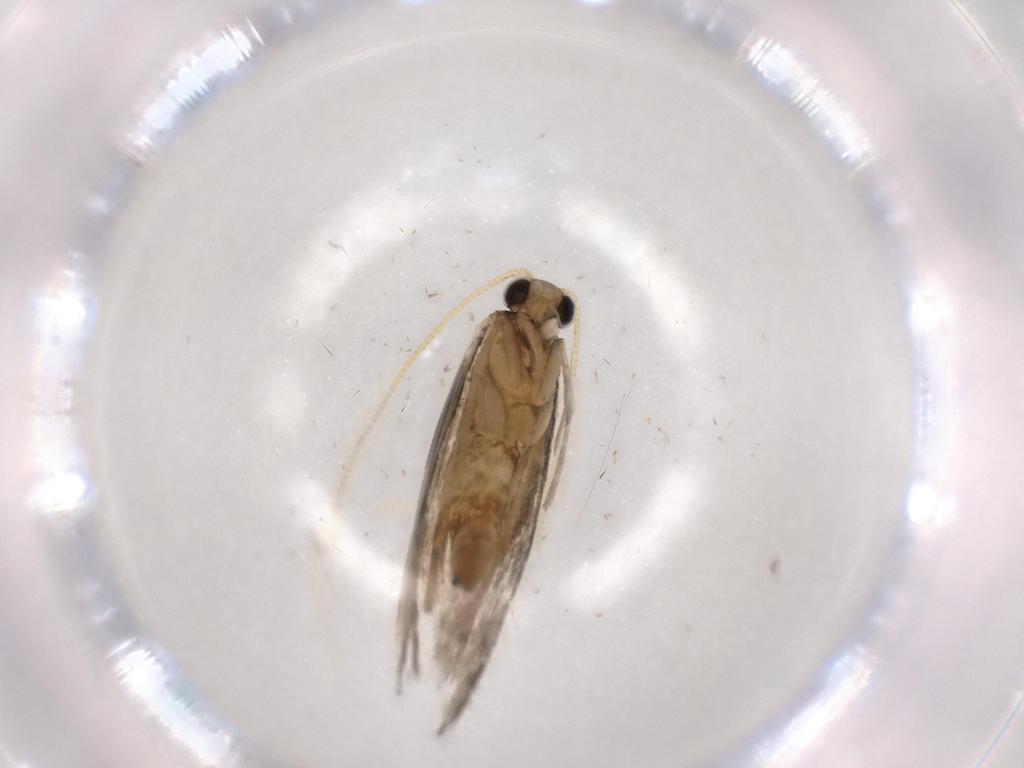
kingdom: Animalia
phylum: Arthropoda
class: Insecta
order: Lepidoptera
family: Tineidae
